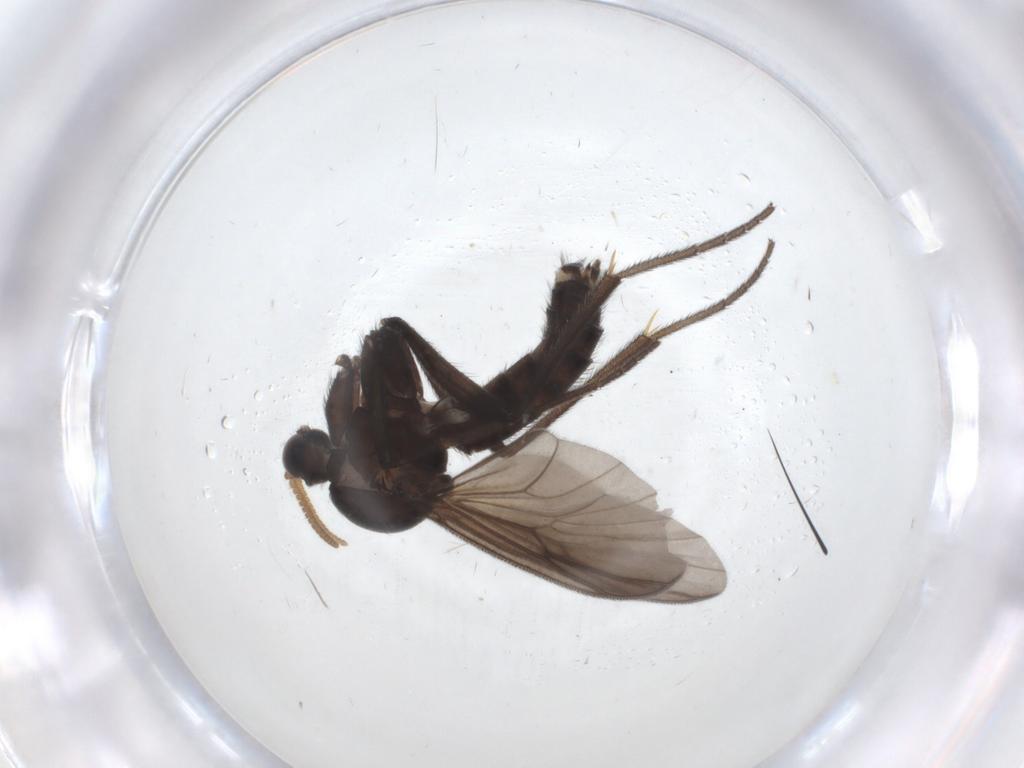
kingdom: Animalia
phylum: Arthropoda
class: Insecta
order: Diptera
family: Mycetophilidae
